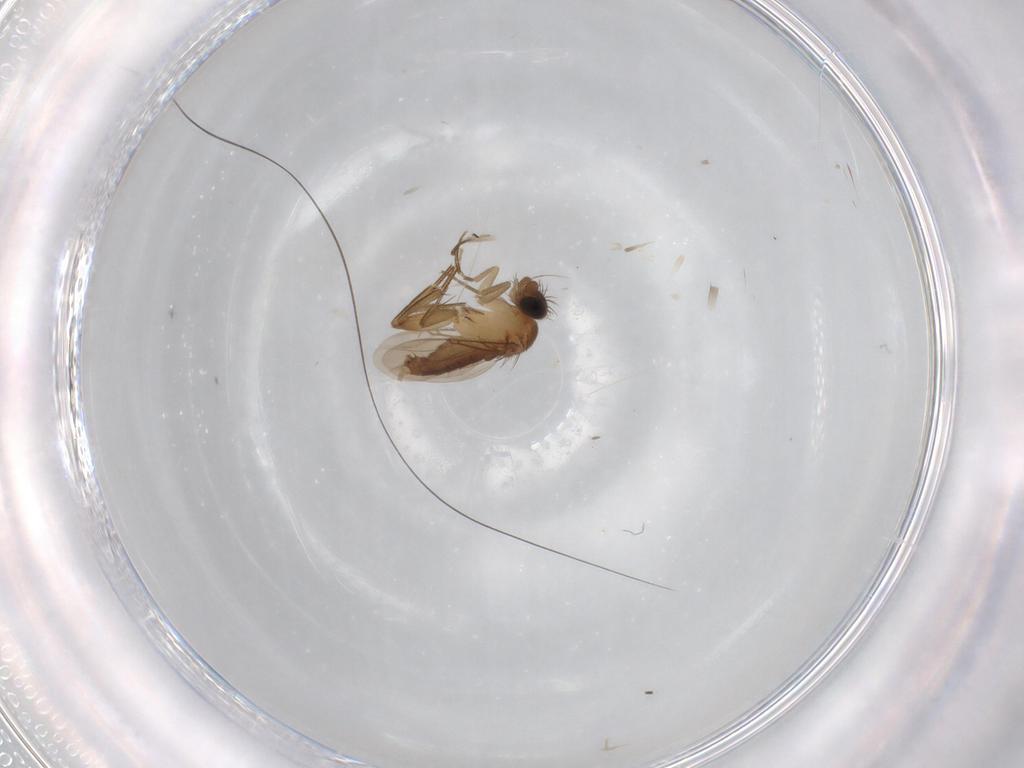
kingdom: Animalia
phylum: Arthropoda
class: Insecta
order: Diptera
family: Phoridae
